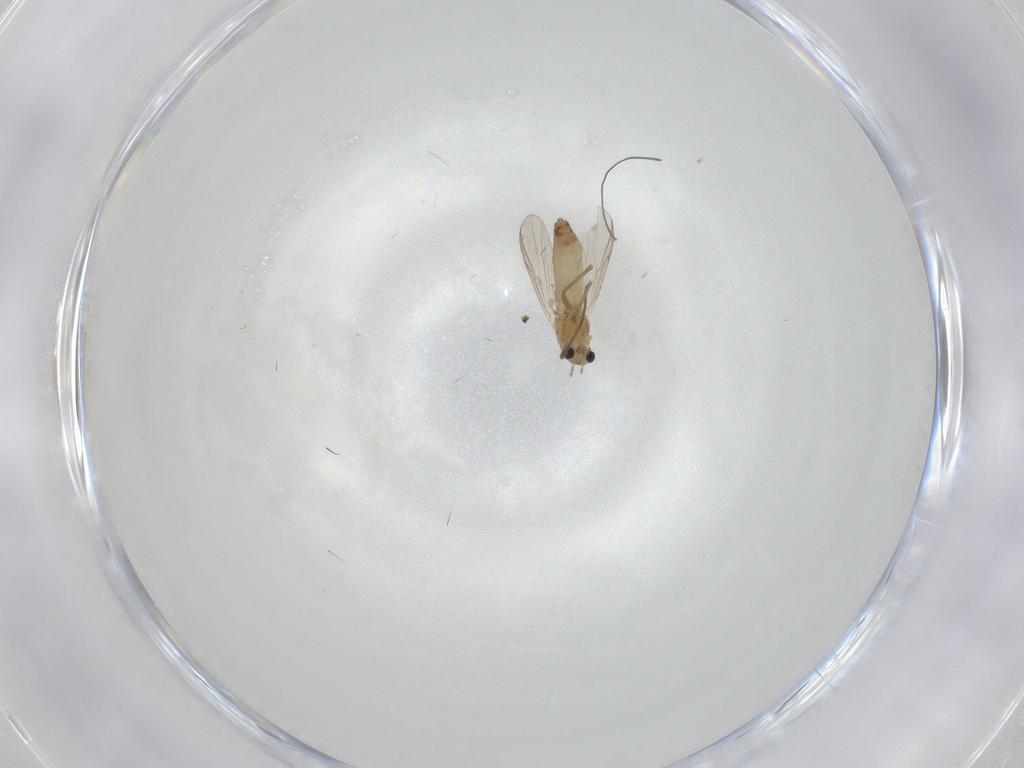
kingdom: Animalia
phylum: Arthropoda
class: Insecta
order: Diptera
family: Chironomidae
